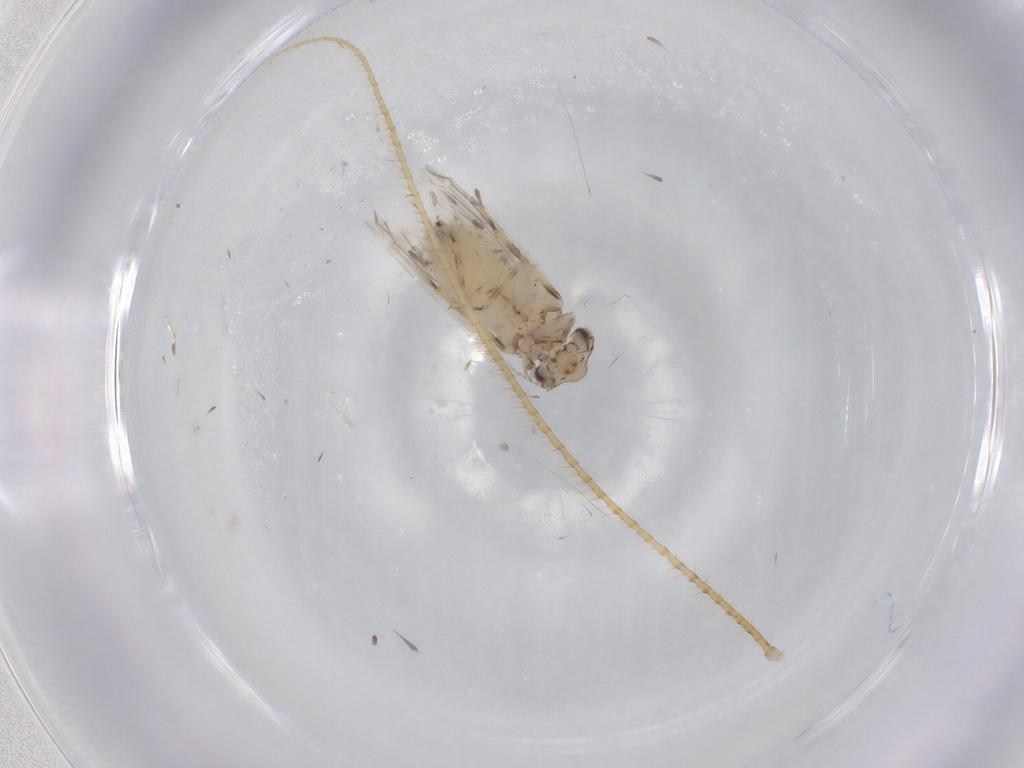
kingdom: Animalia
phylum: Arthropoda
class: Insecta
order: Psocodea
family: Lepidopsocidae
